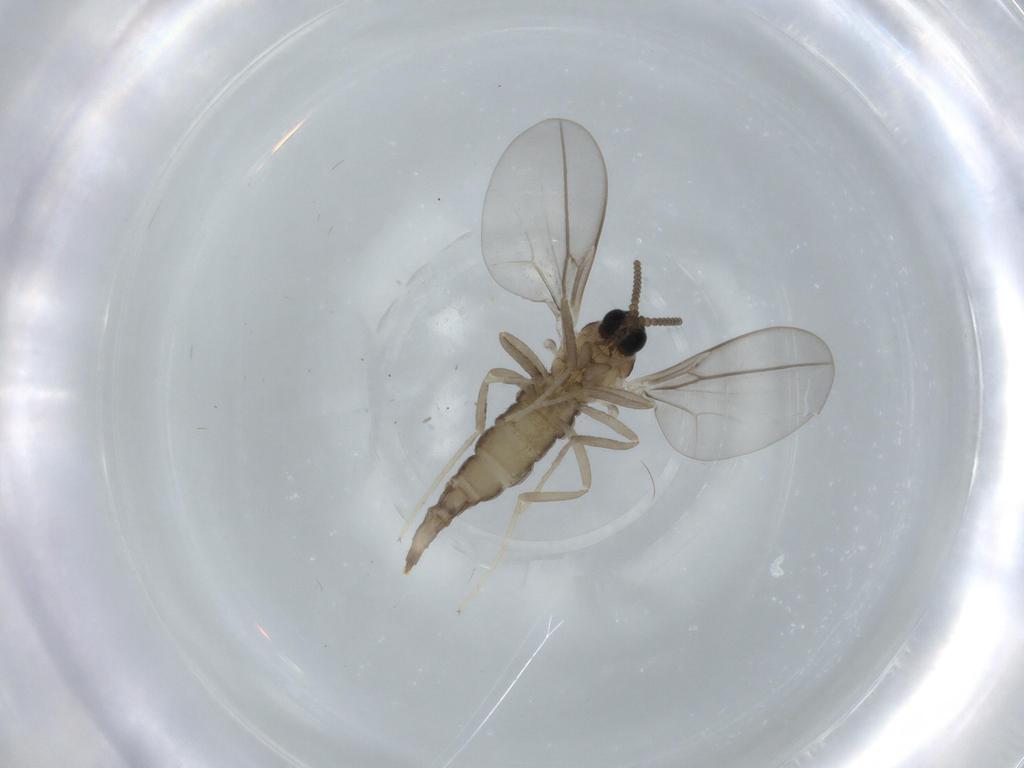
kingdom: Animalia
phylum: Arthropoda
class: Insecta
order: Diptera
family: Cecidomyiidae
